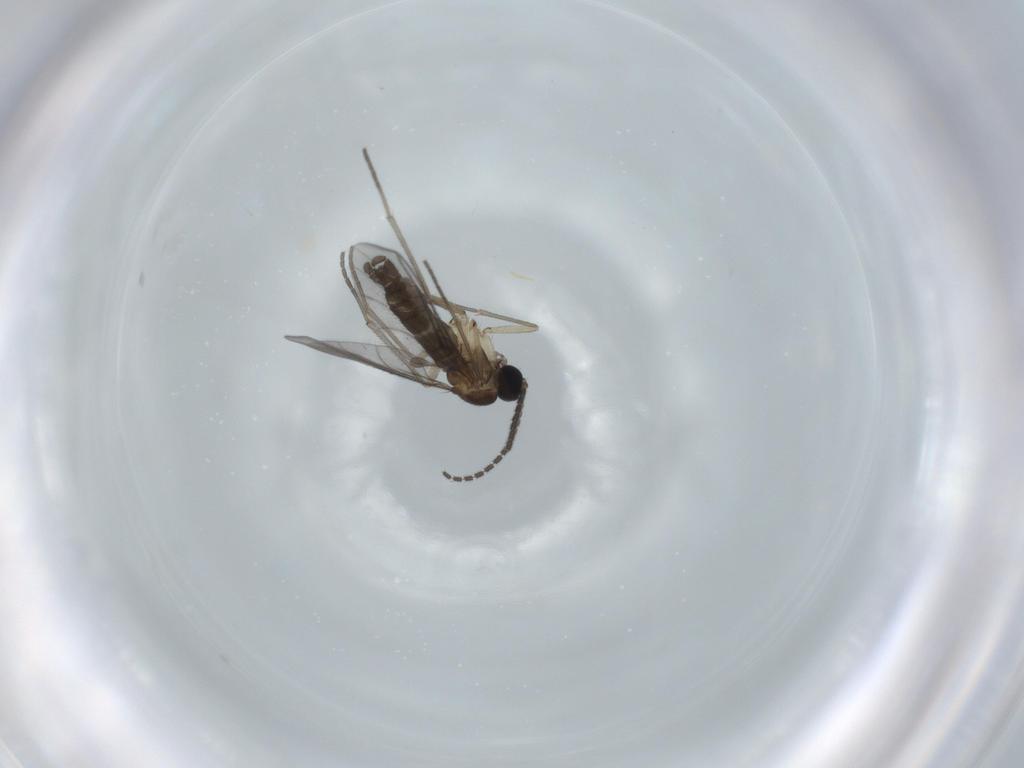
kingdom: Animalia
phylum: Arthropoda
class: Insecta
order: Diptera
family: Sciaridae
